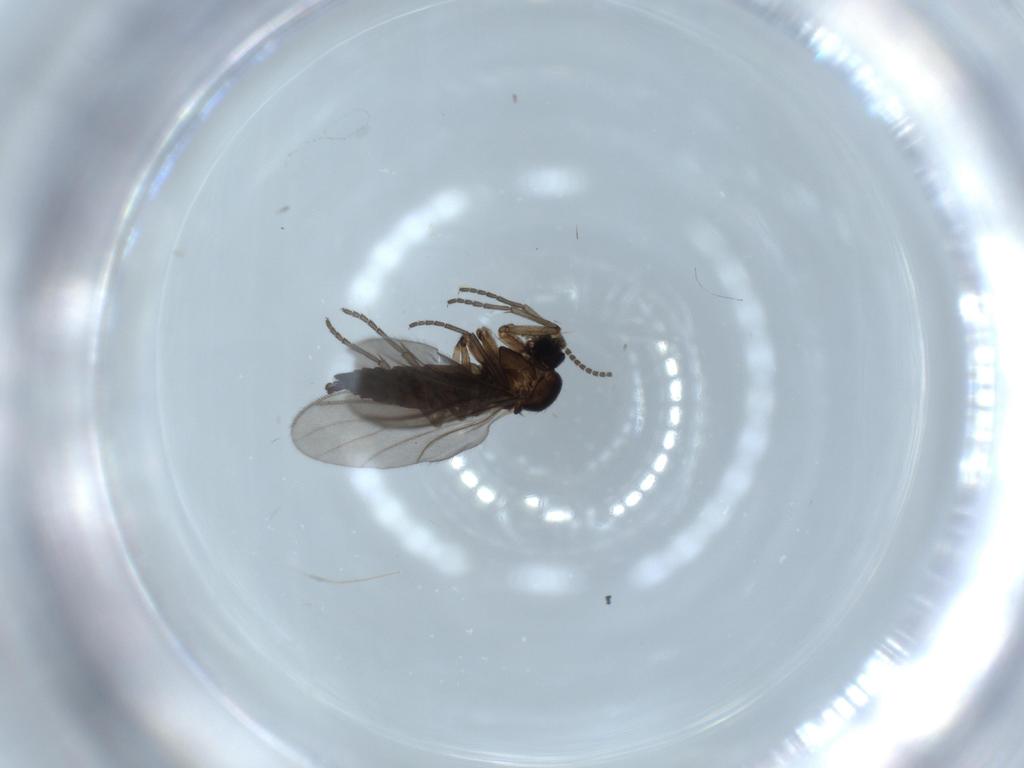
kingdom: Animalia
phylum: Arthropoda
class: Insecta
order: Diptera
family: Sciaridae
